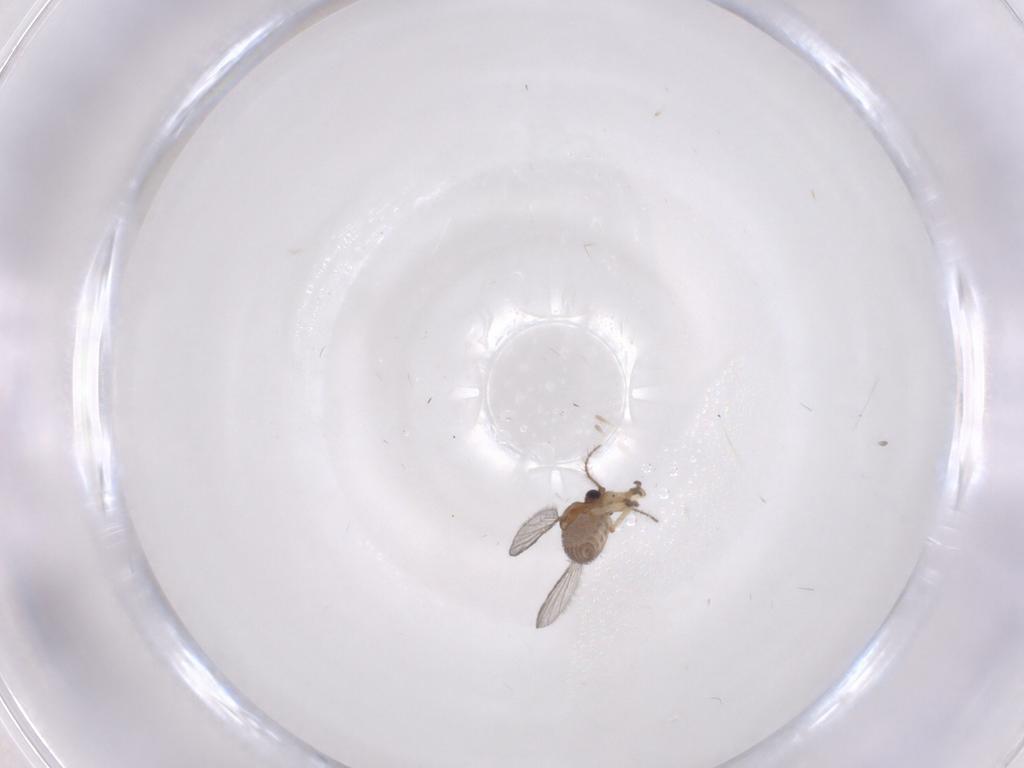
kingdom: Animalia
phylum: Arthropoda
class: Insecta
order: Diptera
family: Ceratopogonidae
